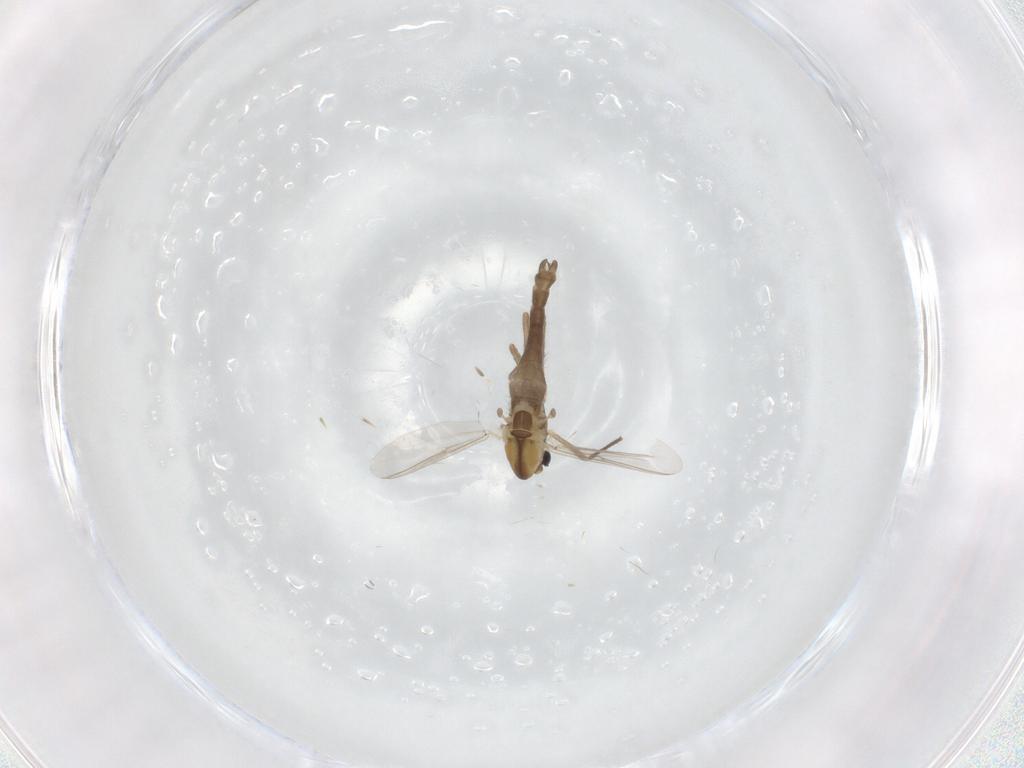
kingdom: Animalia
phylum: Arthropoda
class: Insecta
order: Diptera
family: Chironomidae
